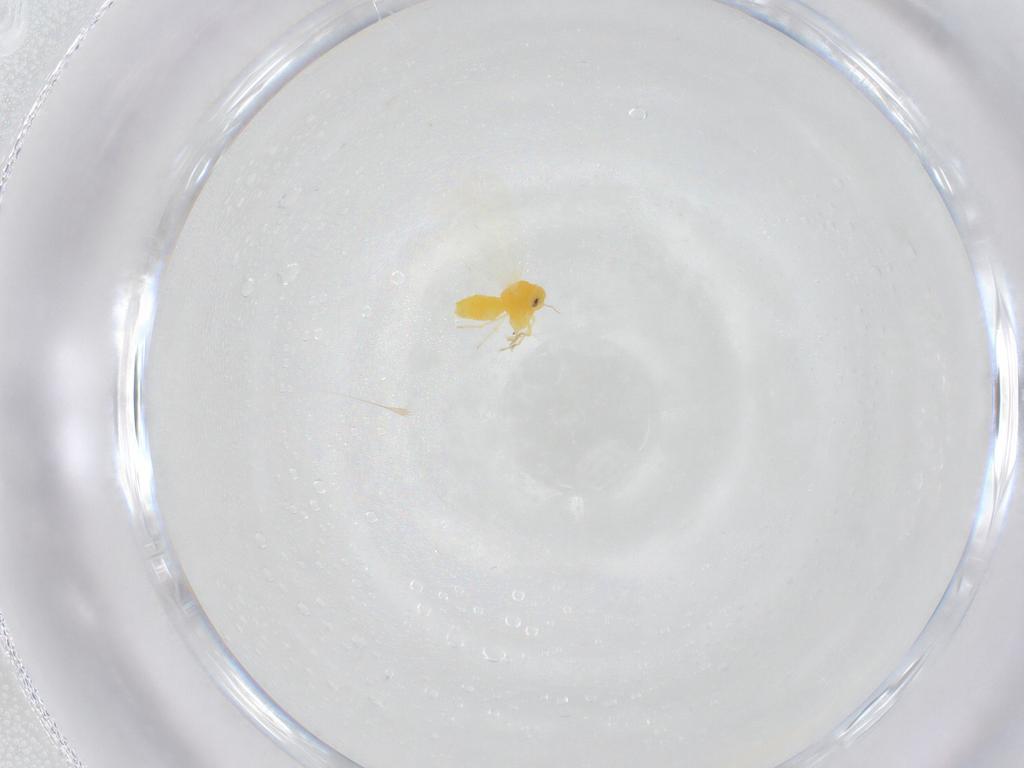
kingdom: Animalia
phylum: Arthropoda
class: Insecta
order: Hemiptera
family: Aleyrodidae
